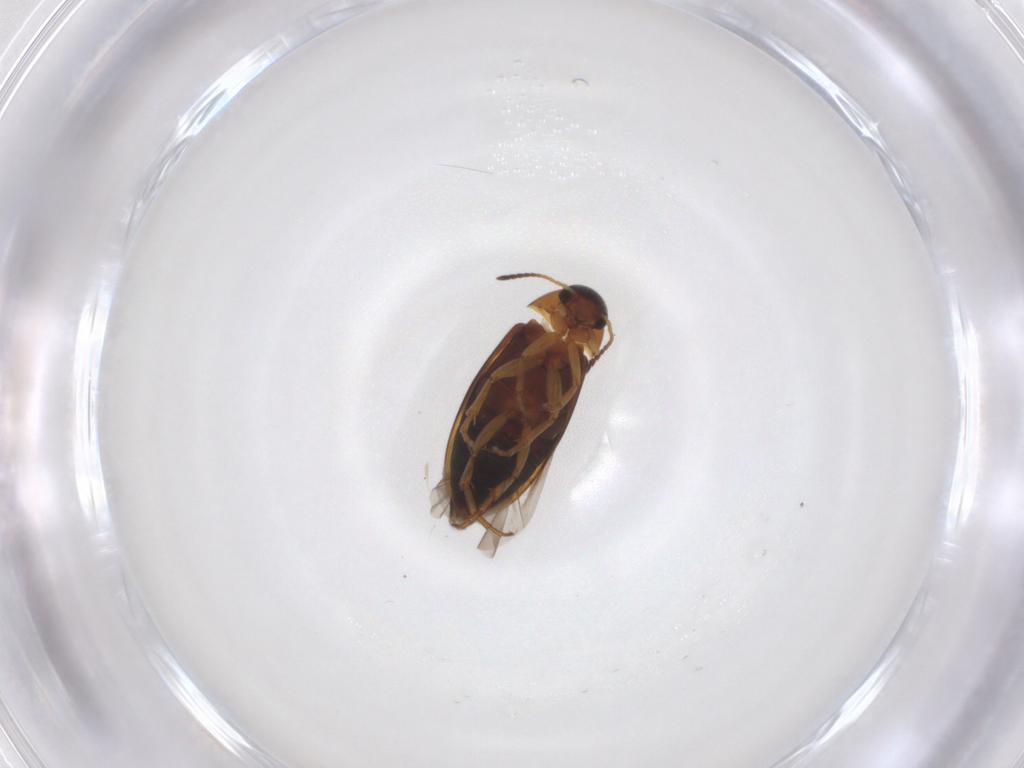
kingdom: Animalia
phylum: Arthropoda
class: Insecta
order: Coleoptera
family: Scraptiidae
